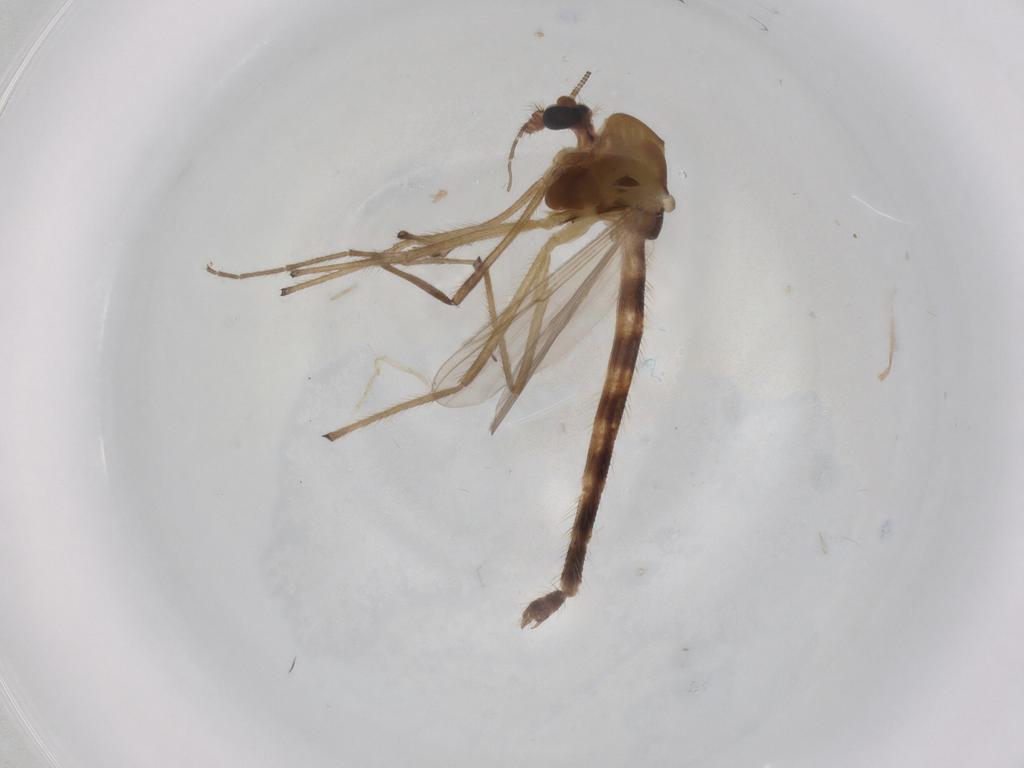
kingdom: Animalia
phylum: Arthropoda
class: Insecta
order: Diptera
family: Chironomidae
